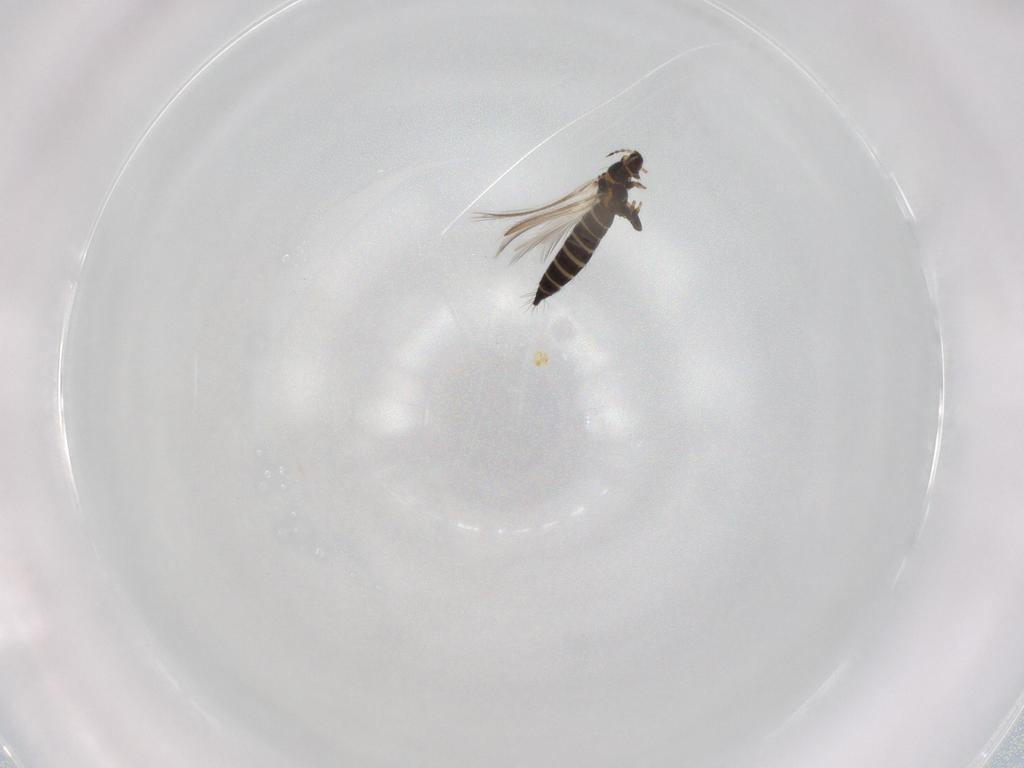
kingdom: Animalia
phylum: Arthropoda
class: Insecta
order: Thysanoptera
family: Thripidae
